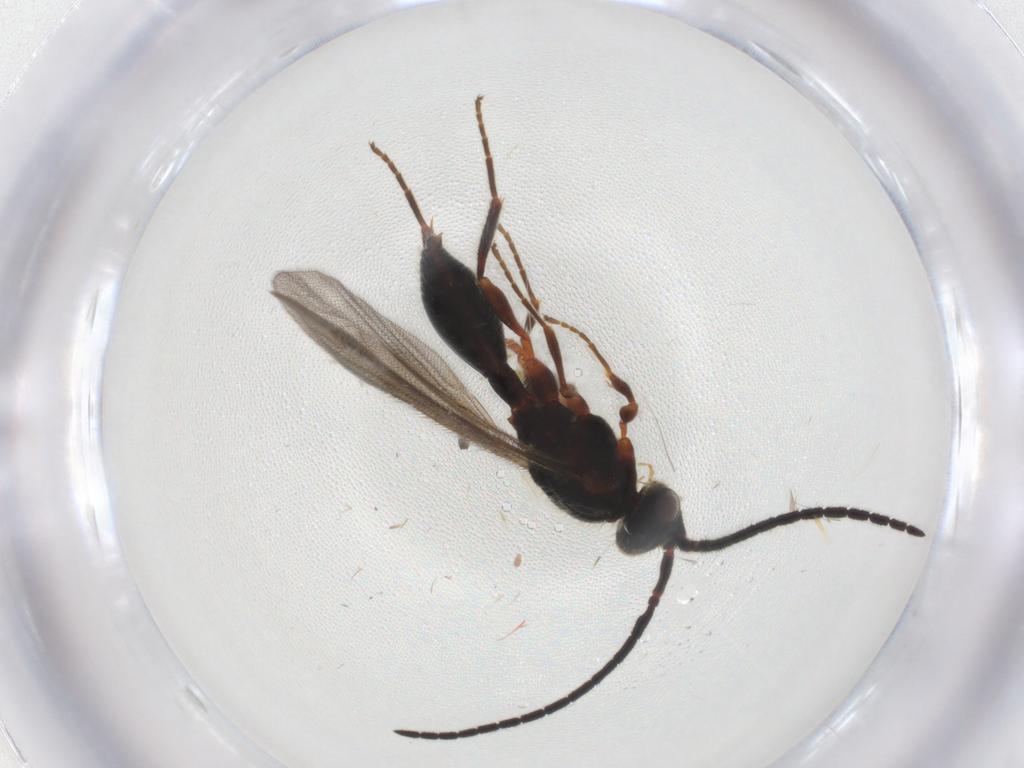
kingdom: Animalia
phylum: Arthropoda
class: Insecta
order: Hymenoptera
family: Diapriidae
